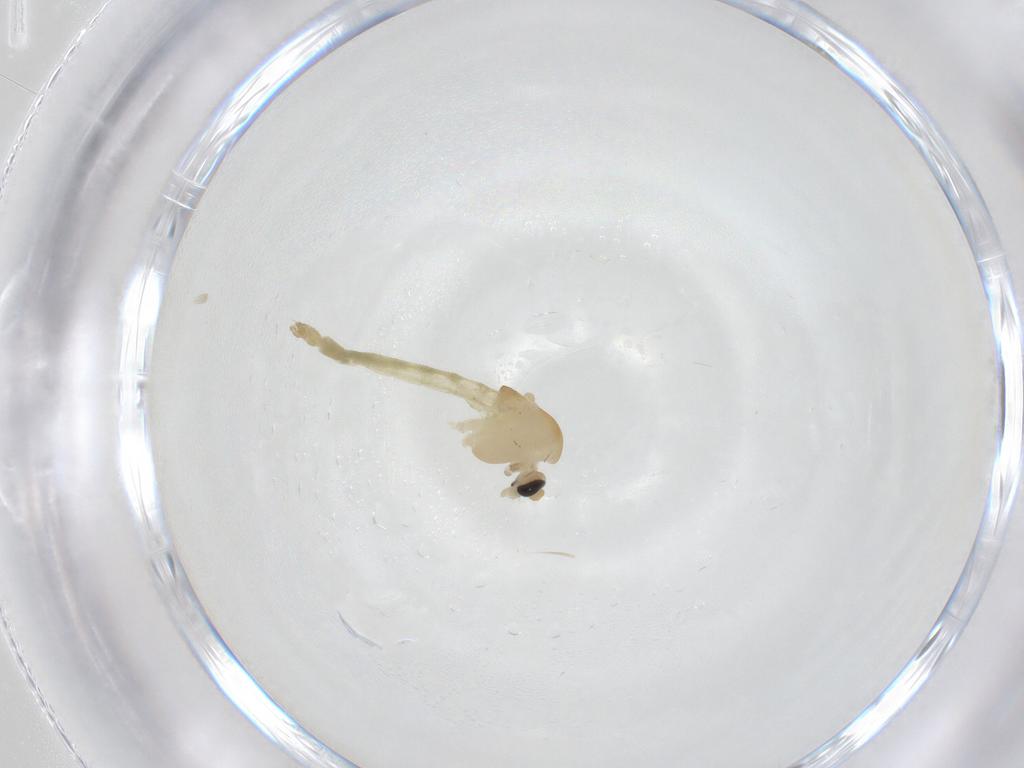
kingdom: Animalia
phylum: Arthropoda
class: Insecta
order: Diptera
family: Chironomidae
